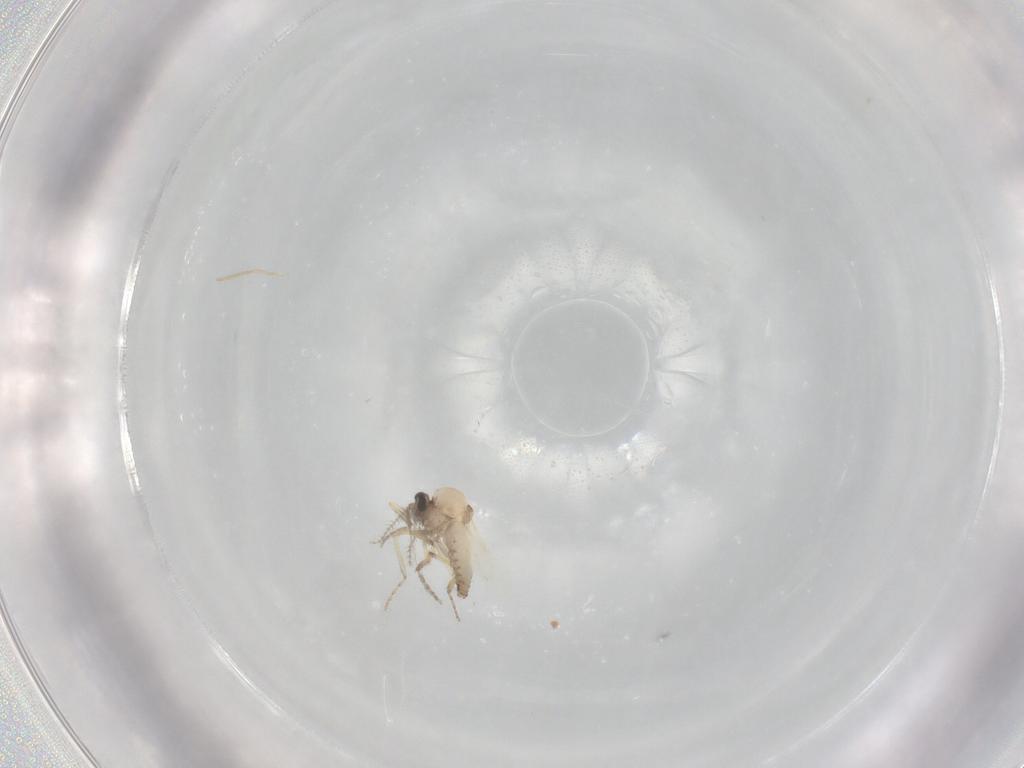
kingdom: Animalia
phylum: Arthropoda
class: Insecta
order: Diptera
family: Ceratopogonidae
